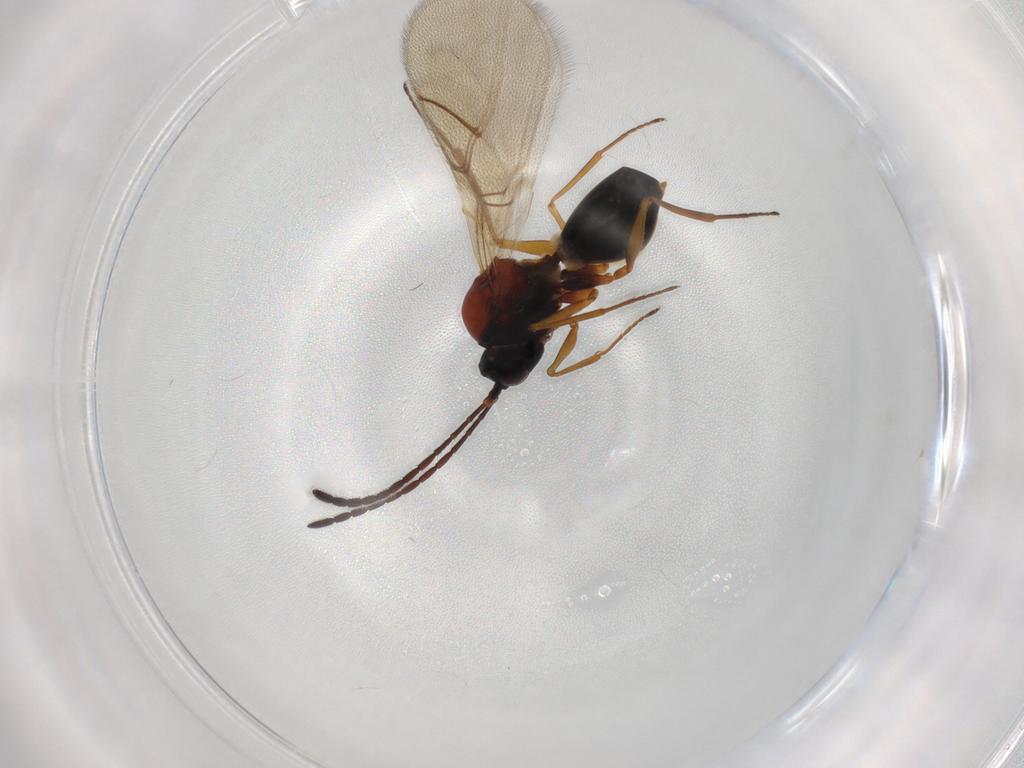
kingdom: Animalia
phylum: Arthropoda
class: Insecta
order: Hymenoptera
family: Figitidae
